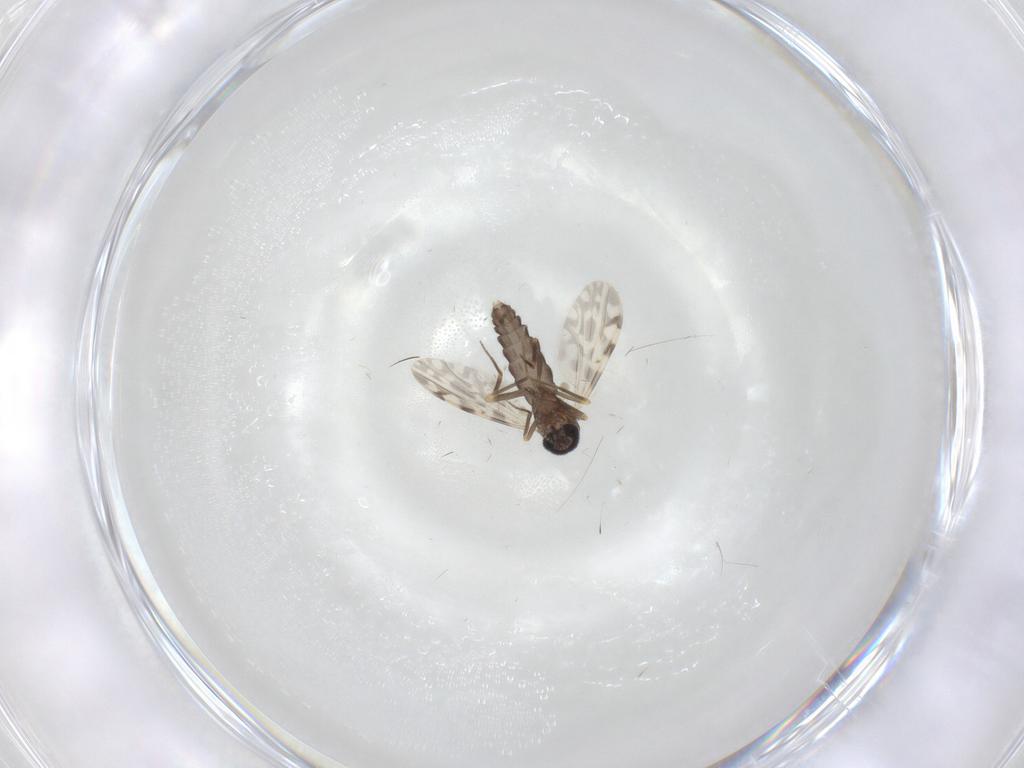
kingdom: Animalia
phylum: Arthropoda
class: Insecta
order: Diptera
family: Ceratopogonidae
